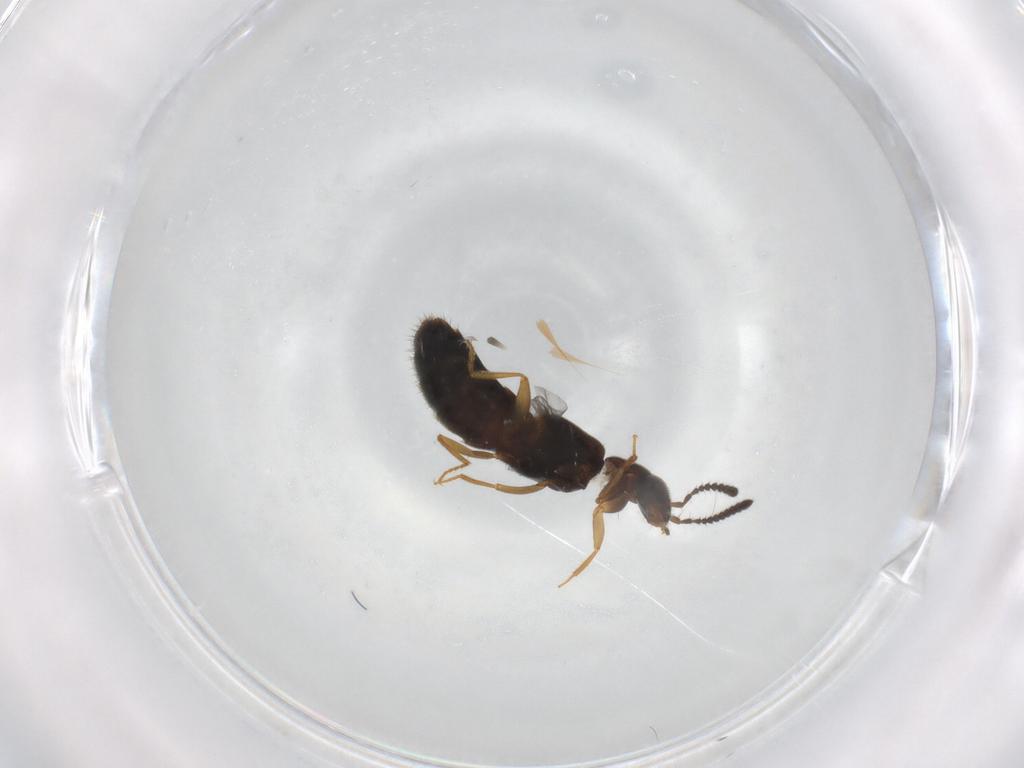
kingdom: Animalia
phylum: Arthropoda
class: Insecta
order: Coleoptera
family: Staphylinidae
